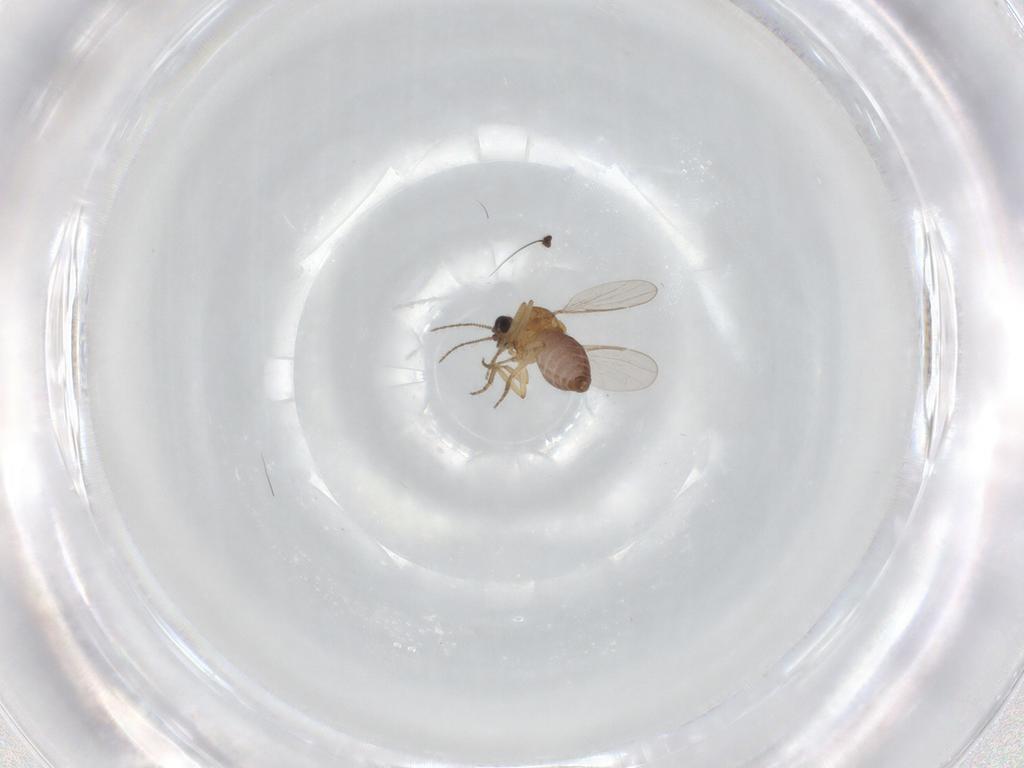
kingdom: Animalia
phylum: Arthropoda
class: Insecta
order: Diptera
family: Dolichopodidae
